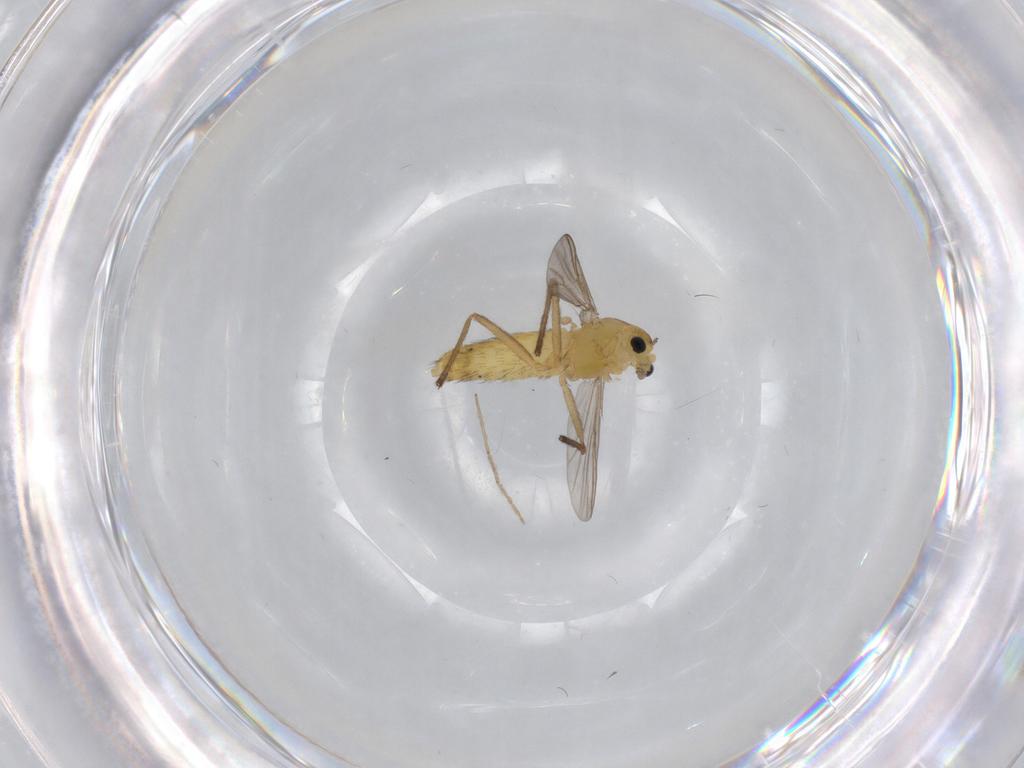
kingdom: Animalia
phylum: Arthropoda
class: Insecta
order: Diptera
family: Chironomidae
